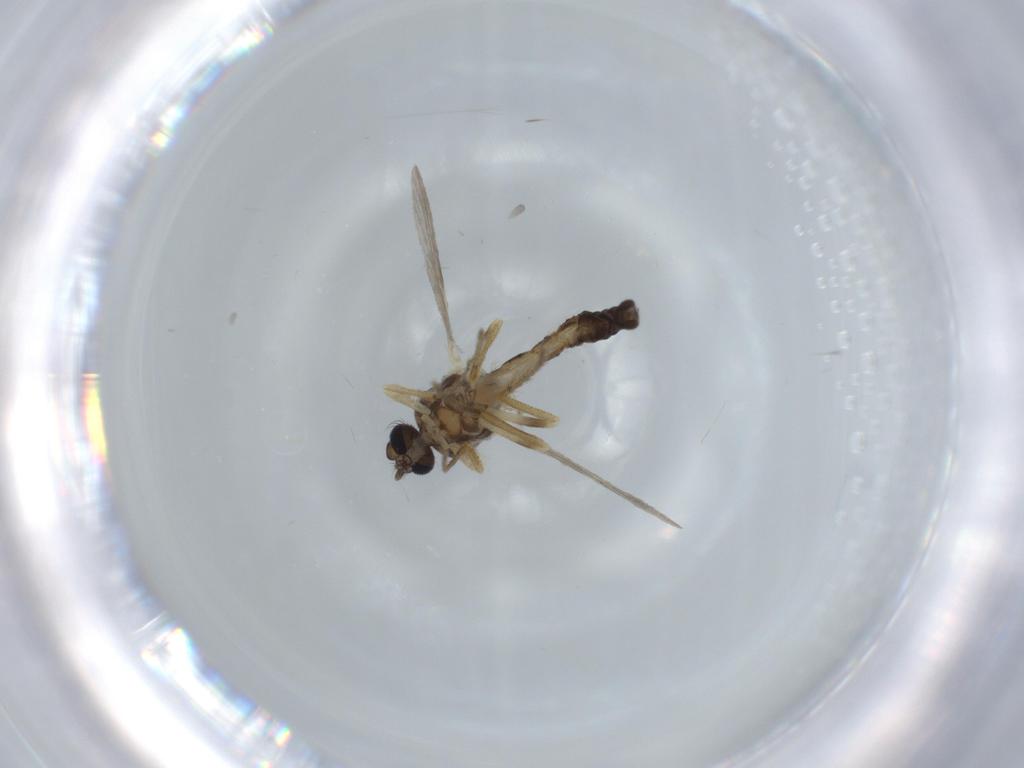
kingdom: Animalia
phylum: Arthropoda
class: Insecta
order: Diptera
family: Ceratopogonidae
